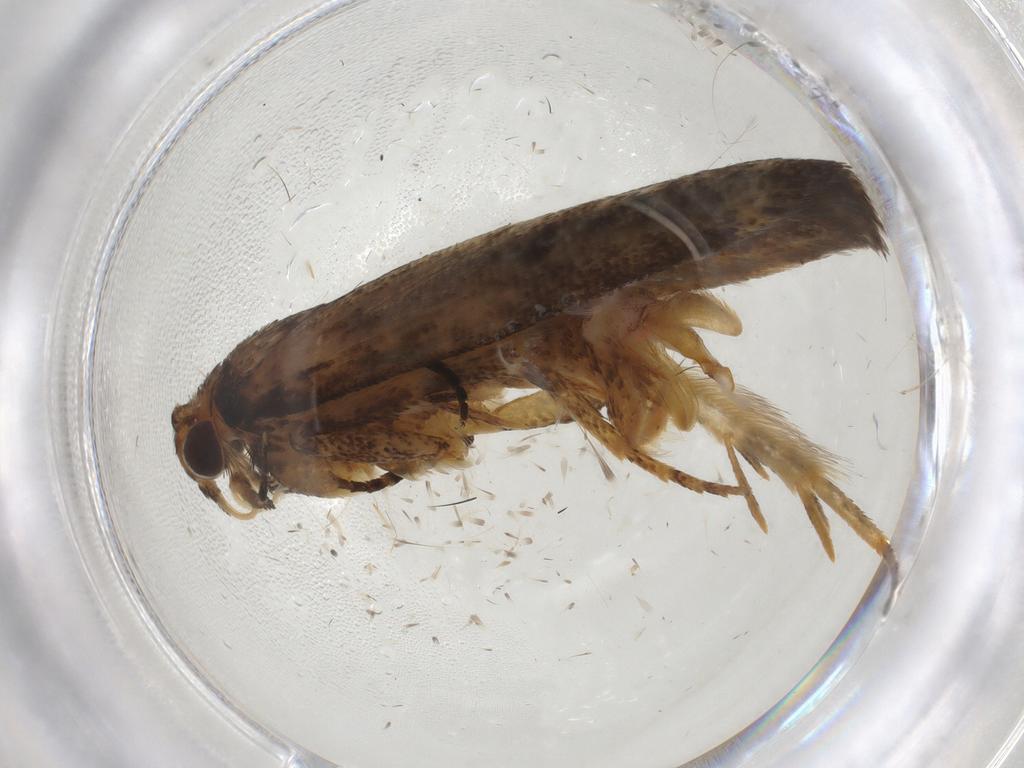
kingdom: Animalia
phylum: Arthropoda
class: Insecta
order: Lepidoptera
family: Gelechiidae
